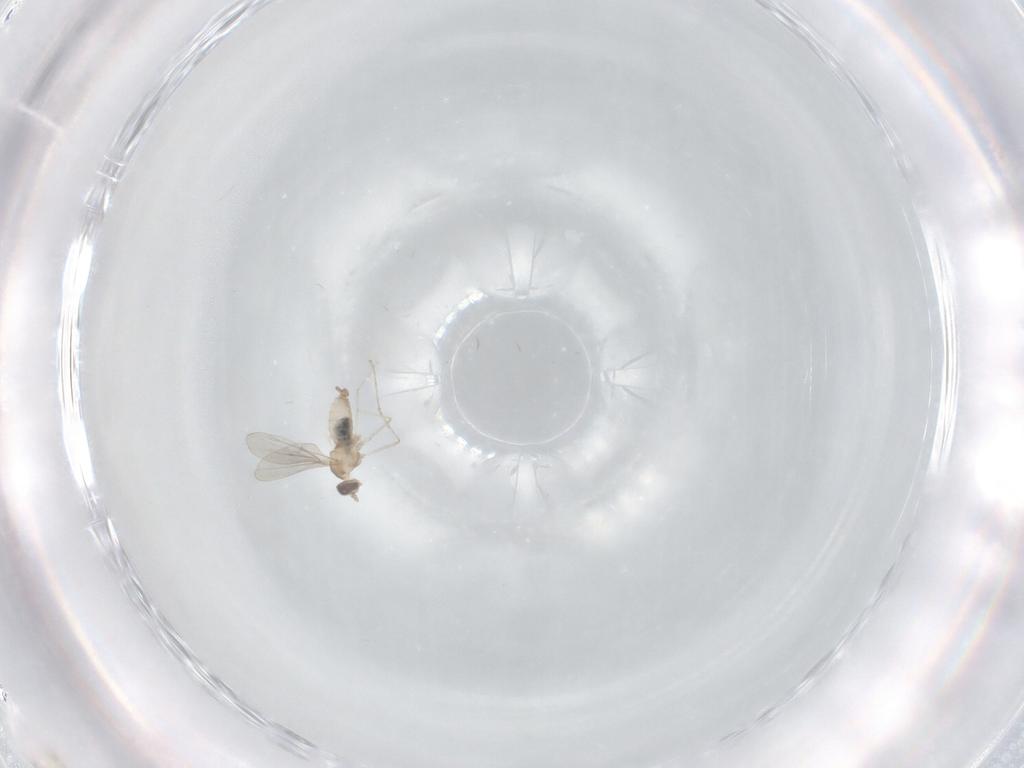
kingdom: Animalia
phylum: Arthropoda
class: Insecta
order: Diptera
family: Cecidomyiidae
